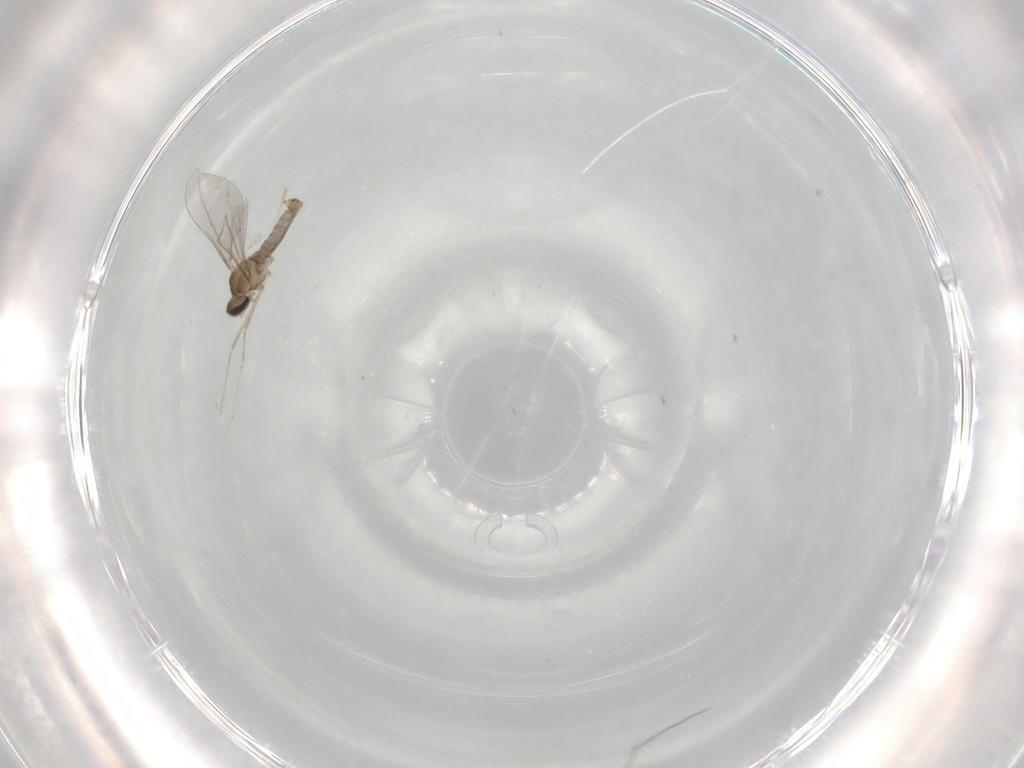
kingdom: Animalia
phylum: Arthropoda
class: Insecta
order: Diptera
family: Cecidomyiidae
